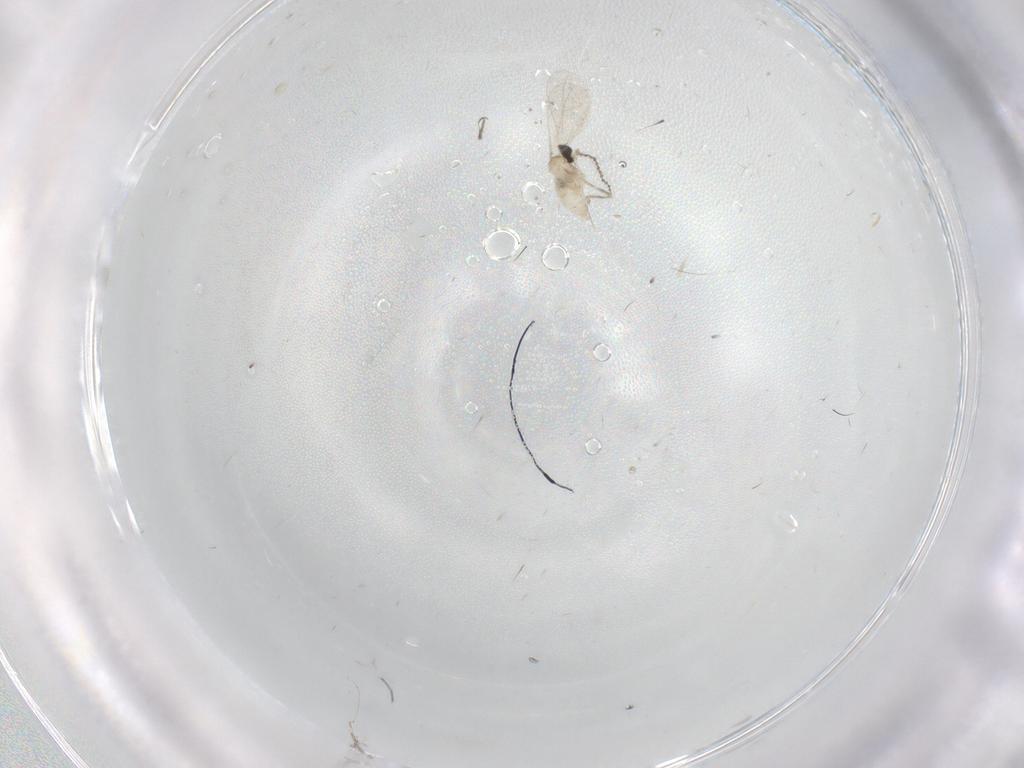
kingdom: Animalia
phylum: Arthropoda
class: Insecta
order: Diptera
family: Cecidomyiidae
